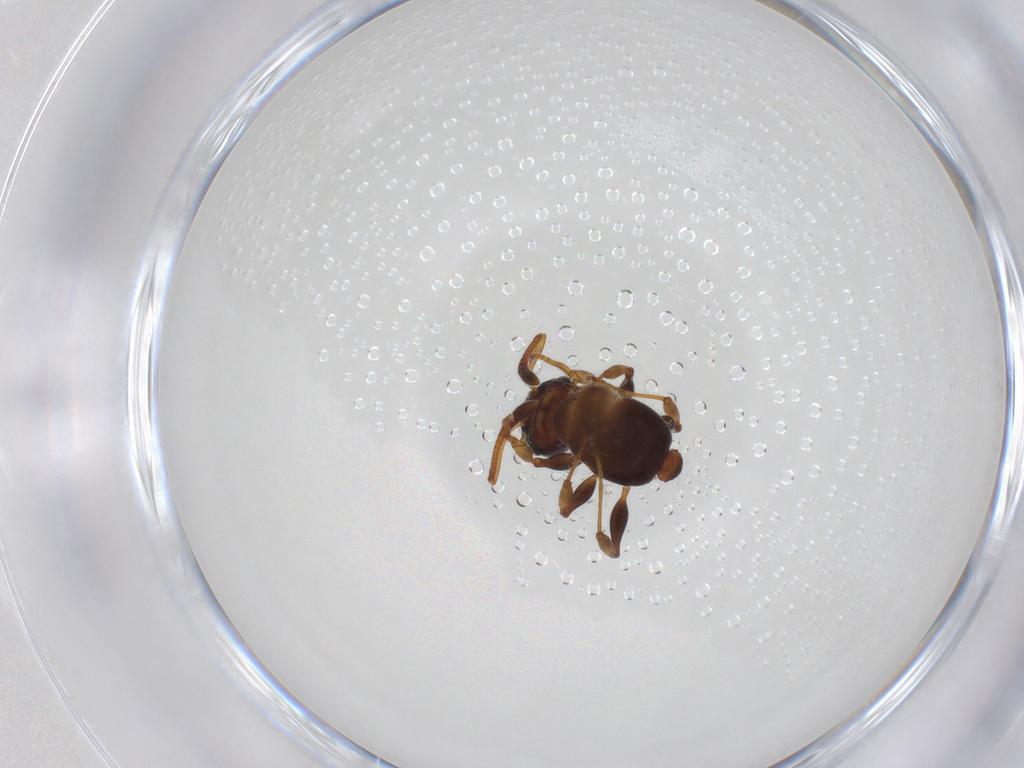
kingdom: Animalia
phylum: Arthropoda
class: Insecta
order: Hymenoptera
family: Formicidae
